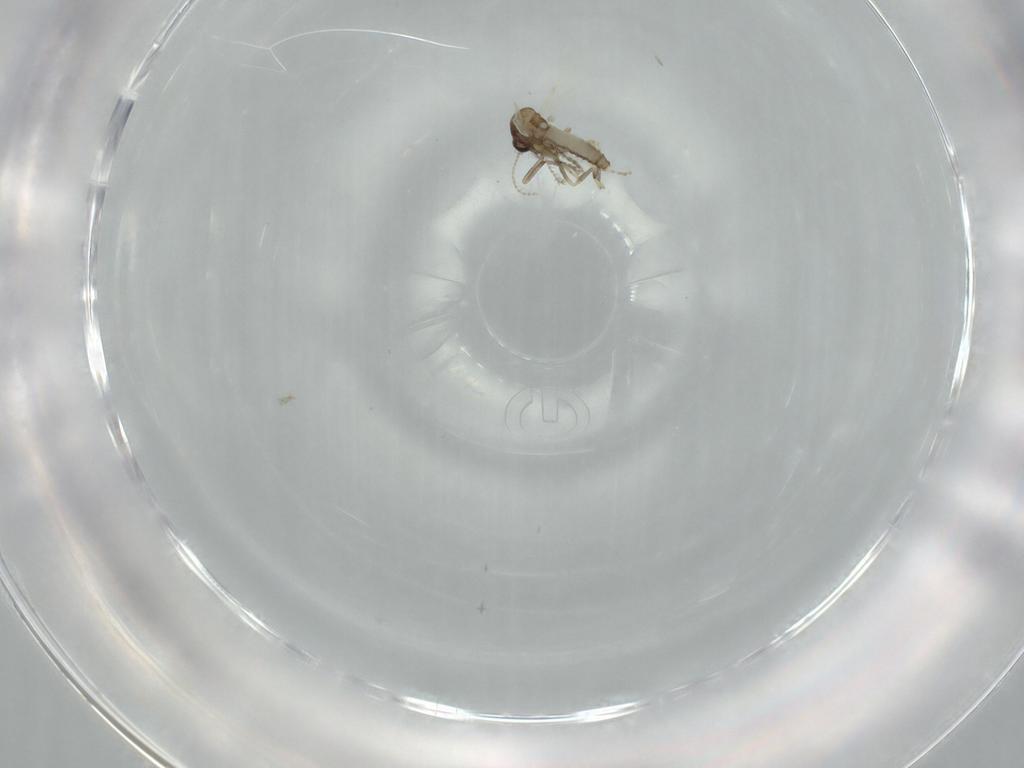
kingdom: Animalia
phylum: Arthropoda
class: Insecta
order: Diptera
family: Ceratopogonidae
